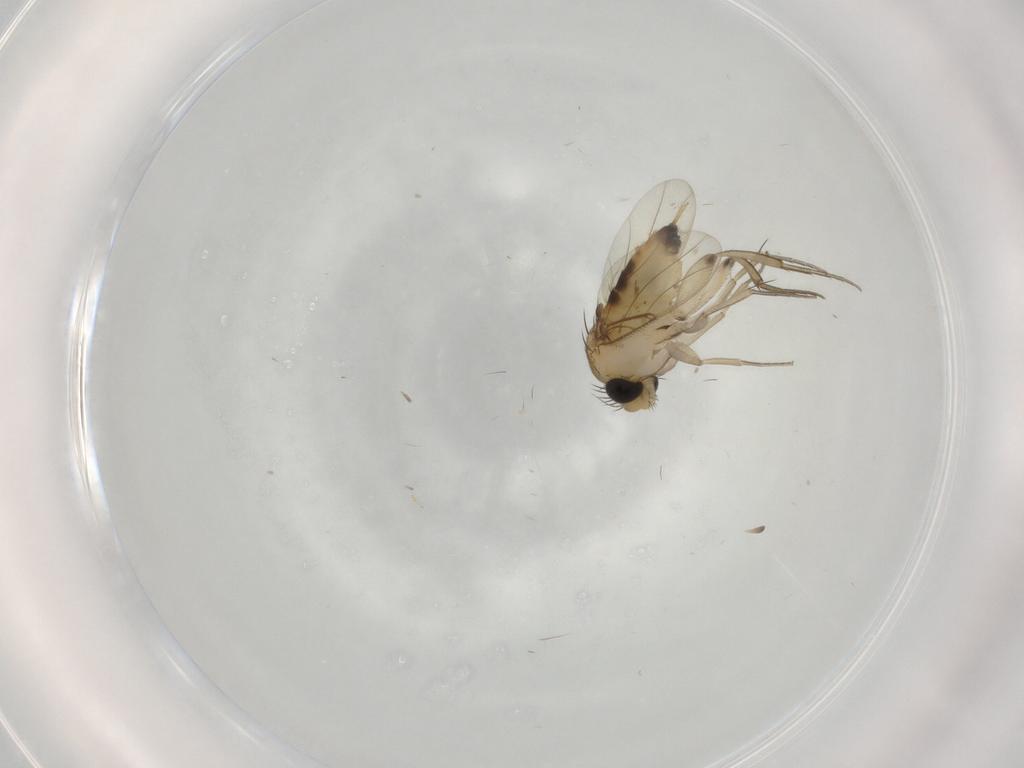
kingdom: Animalia
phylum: Arthropoda
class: Insecta
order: Diptera
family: Phoridae
